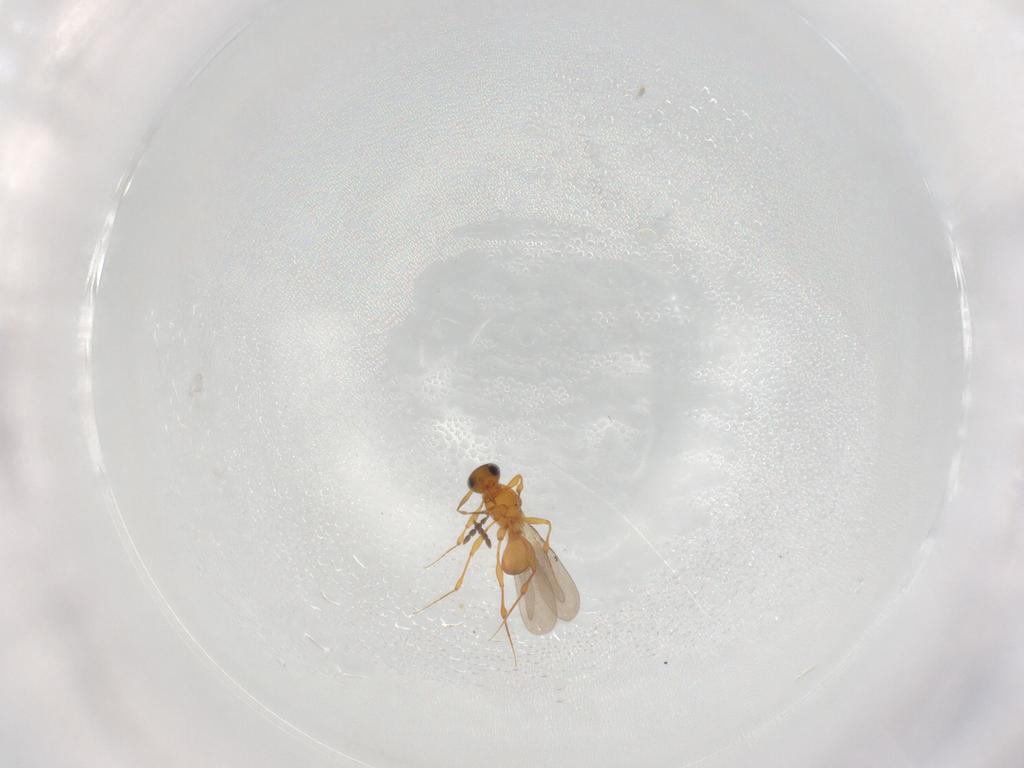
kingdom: Animalia
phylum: Arthropoda
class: Insecta
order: Hymenoptera
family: Platygastridae
